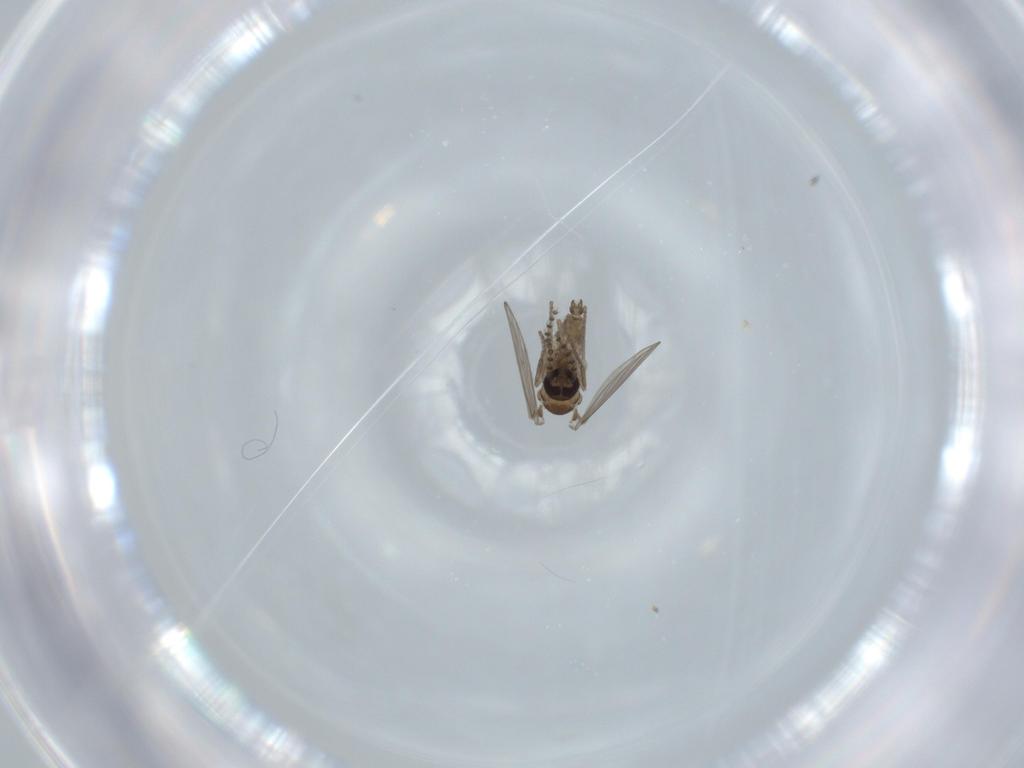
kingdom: Animalia
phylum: Arthropoda
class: Insecta
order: Diptera
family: Psychodidae
